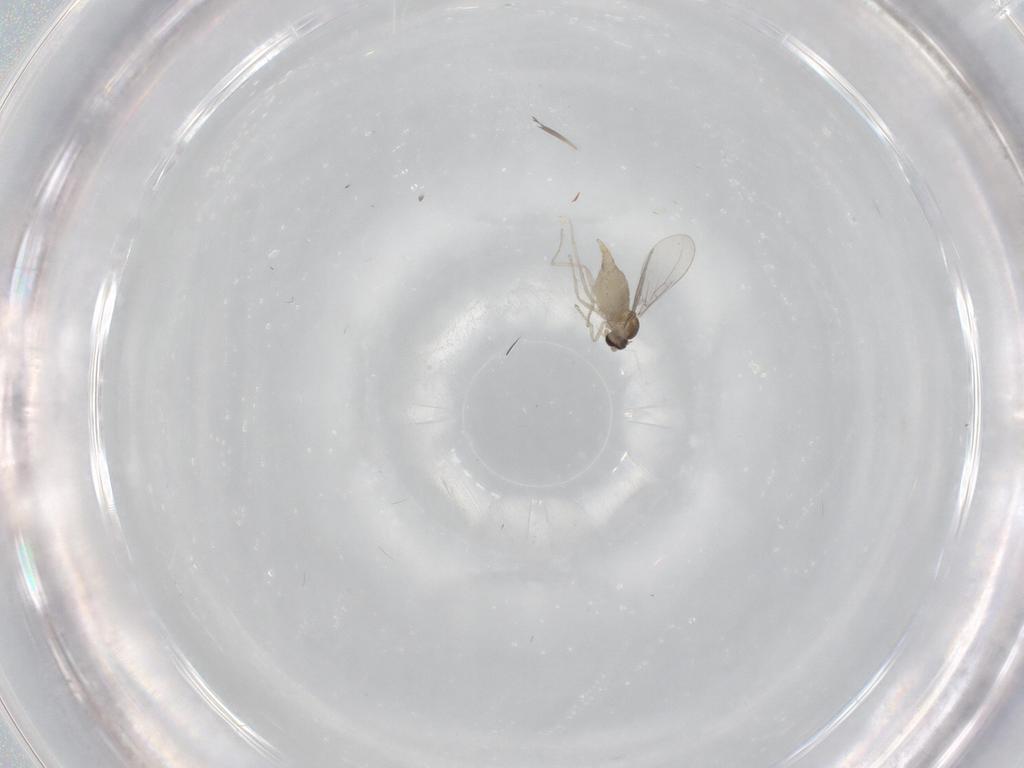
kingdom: Animalia
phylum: Arthropoda
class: Insecta
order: Diptera
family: Cecidomyiidae
